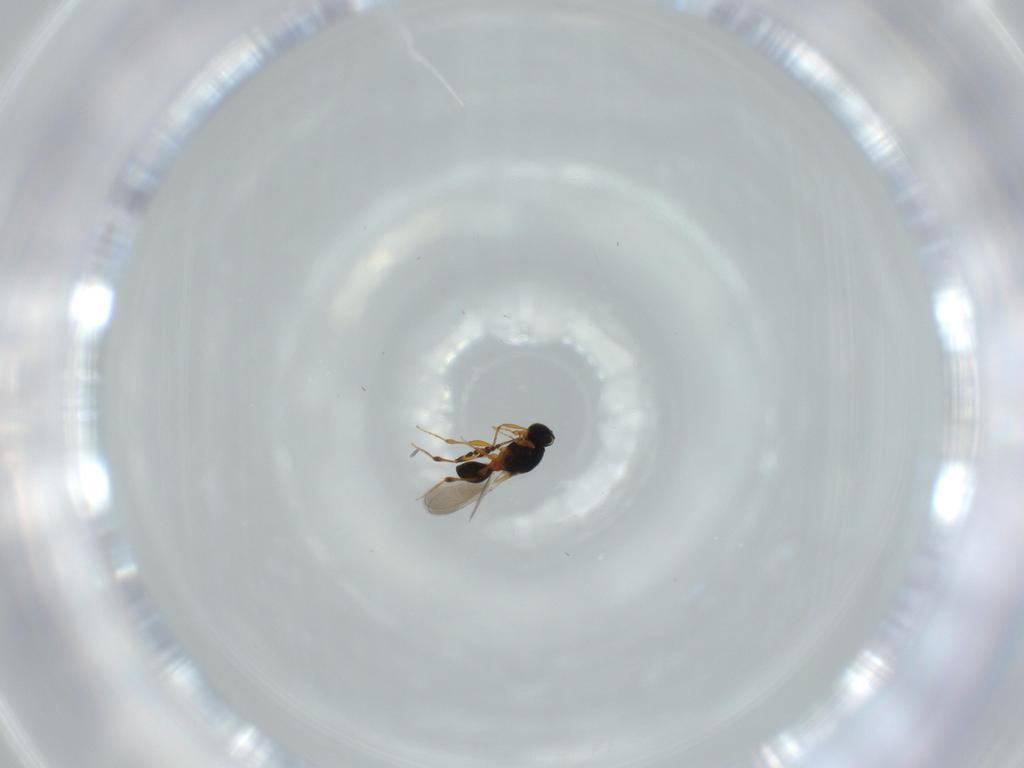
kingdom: Animalia
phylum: Arthropoda
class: Insecta
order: Hymenoptera
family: Platygastridae
